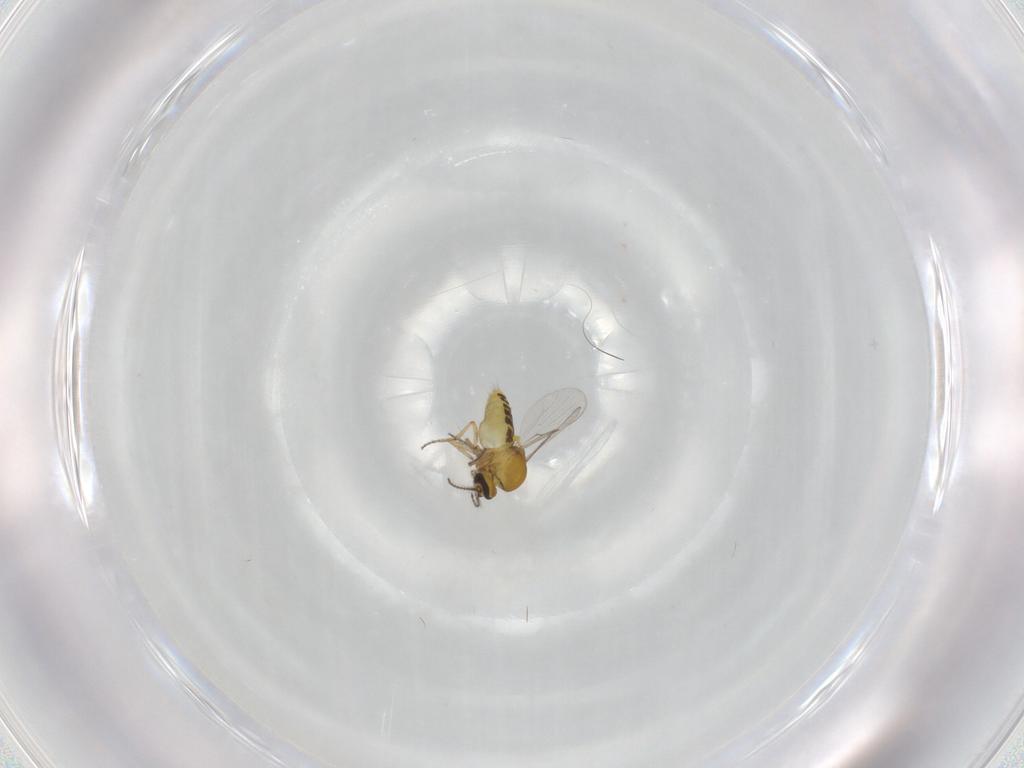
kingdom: Animalia
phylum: Arthropoda
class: Insecta
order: Diptera
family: Ceratopogonidae
